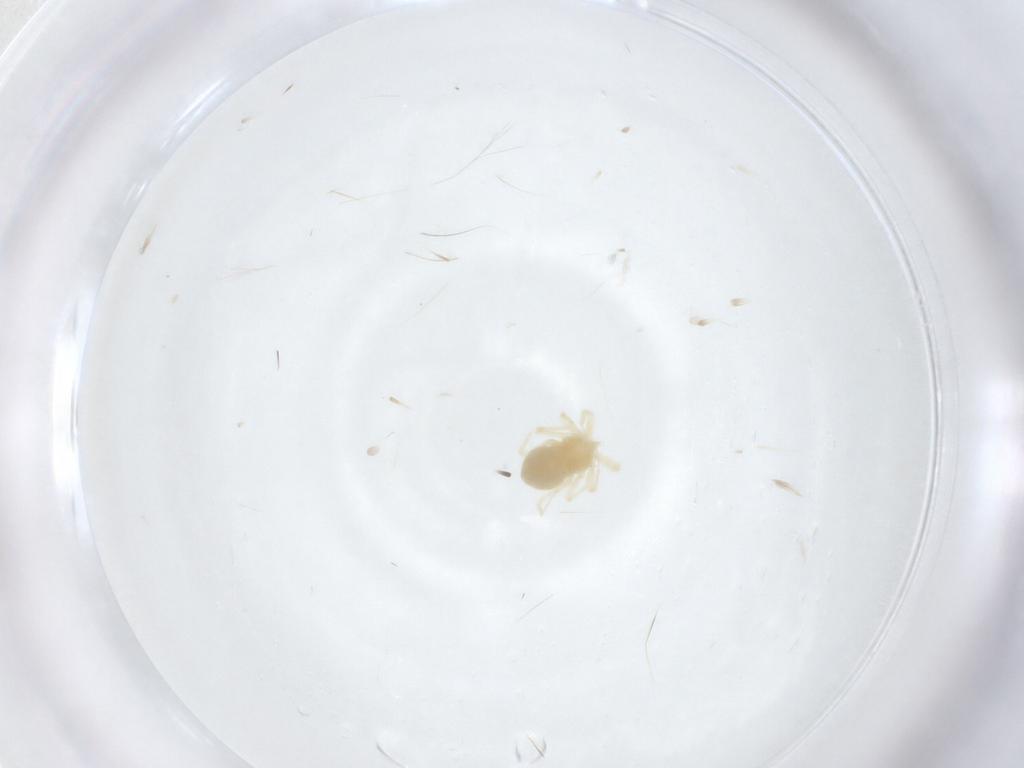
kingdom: Animalia
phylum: Arthropoda
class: Arachnida
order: Trombidiformes
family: Anystidae
